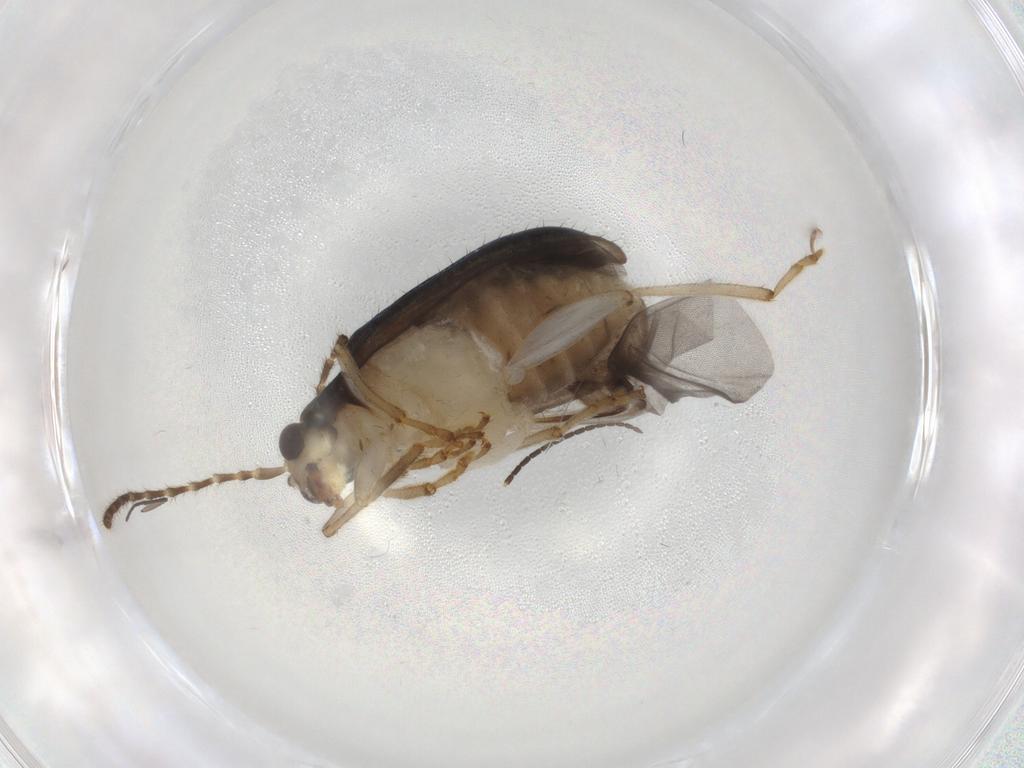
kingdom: Animalia
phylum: Arthropoda
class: Insecta
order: Coleoptera
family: Chrysomelidae
